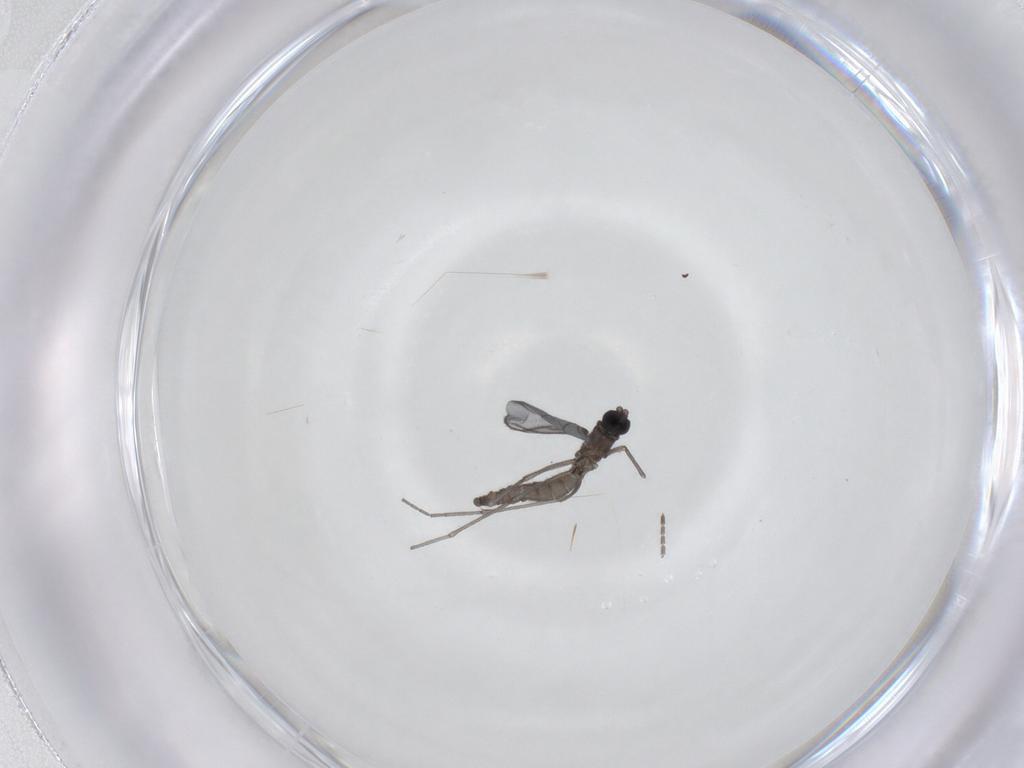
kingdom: Animalia
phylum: Arthropoda
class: Insecta
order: Diptera
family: Sciaridae
